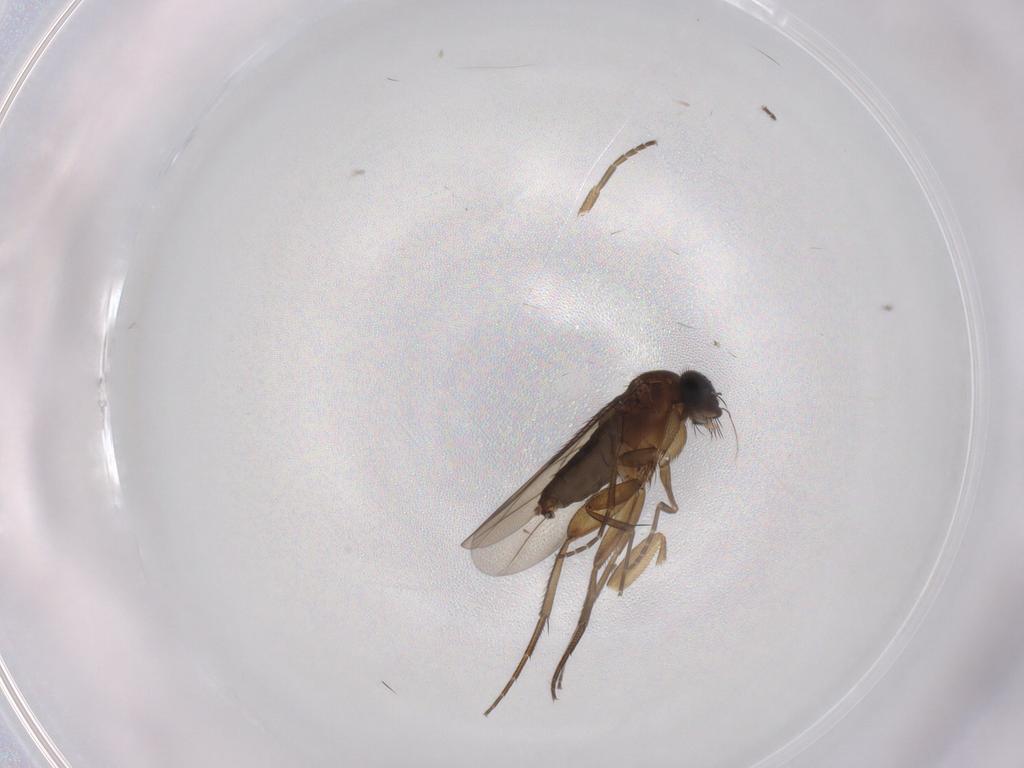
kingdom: Animalia
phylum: Arthropoda
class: Insecta
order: Diptera
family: Phoridae
